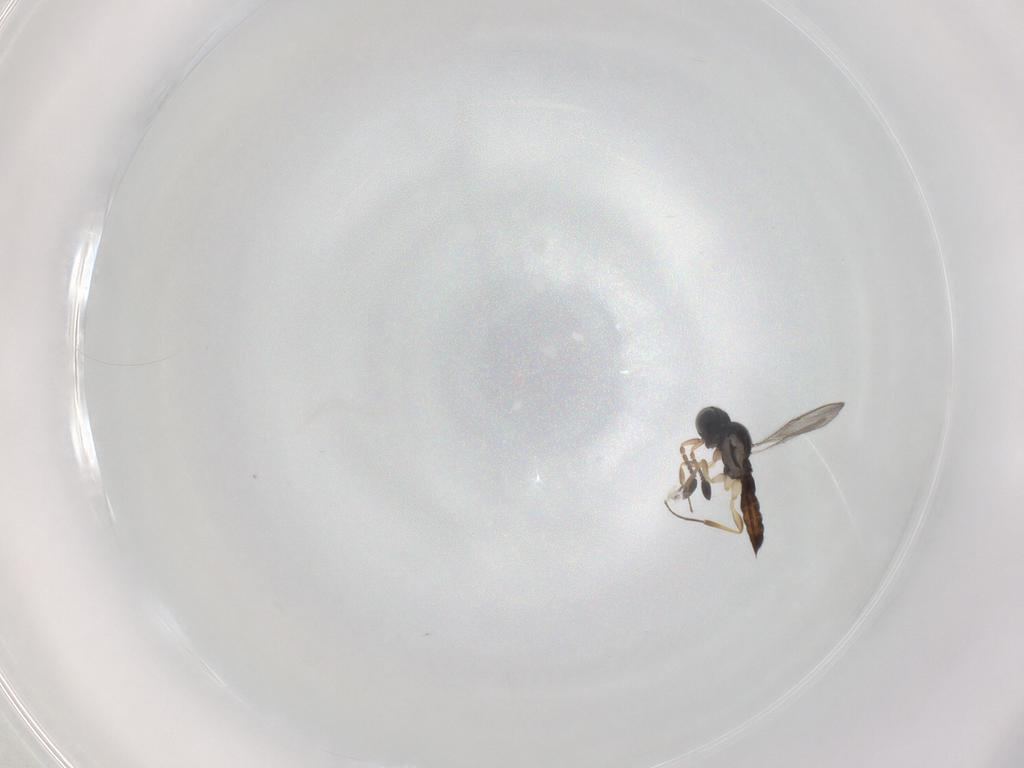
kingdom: Animalia
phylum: Arthropoda
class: Insecta
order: Hymenoptera
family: Scelionidae
